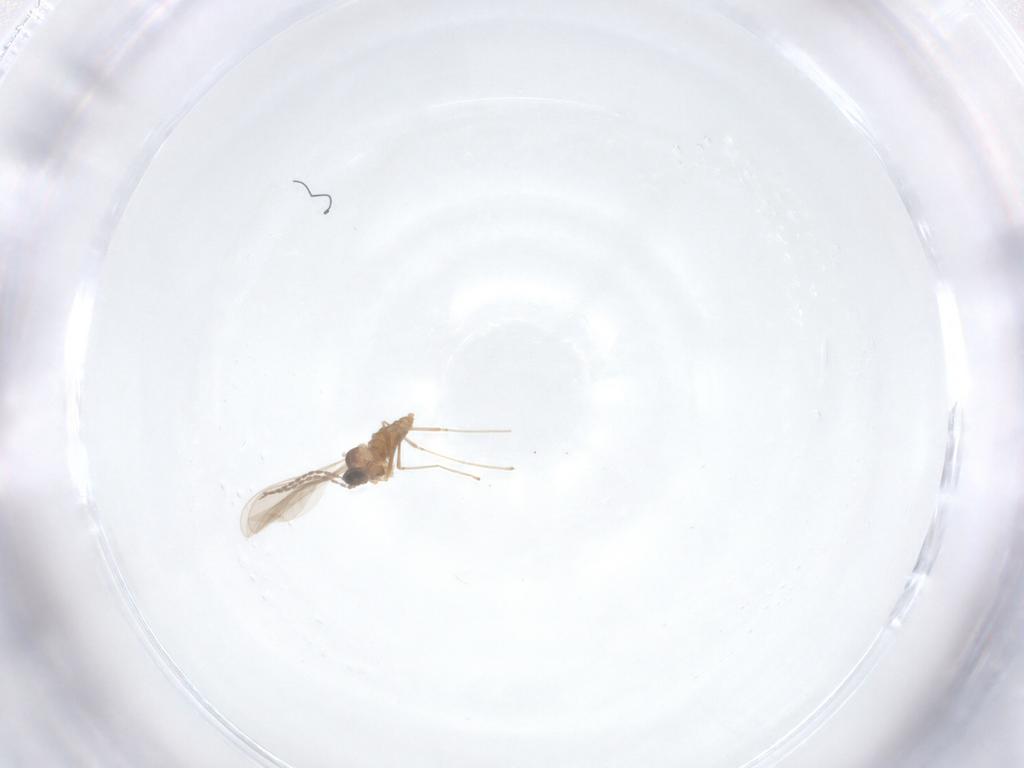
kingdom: Animalia
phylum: Arthropoda
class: Insecta
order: Diptera
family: Cecidomyiidae
